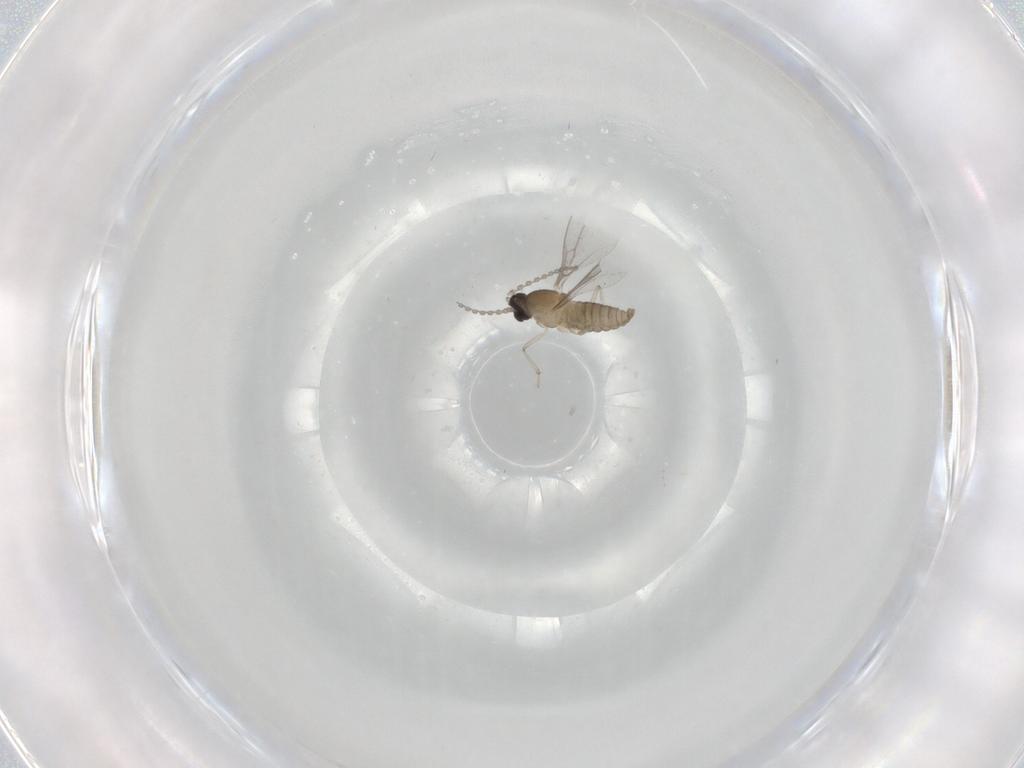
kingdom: Animalia
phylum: Arthropoda
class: Insecta
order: Diptera
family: Cecidomyiidae
